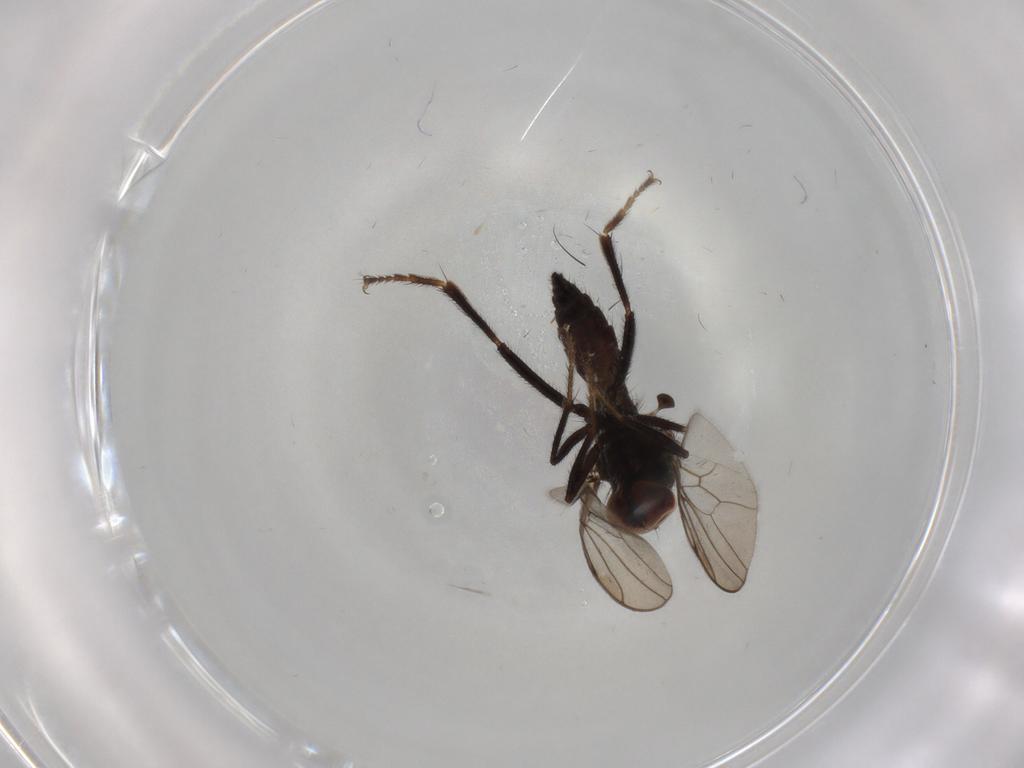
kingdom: Animalia
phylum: Arthropoda
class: Insecta
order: Diptera
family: Hybotidae
